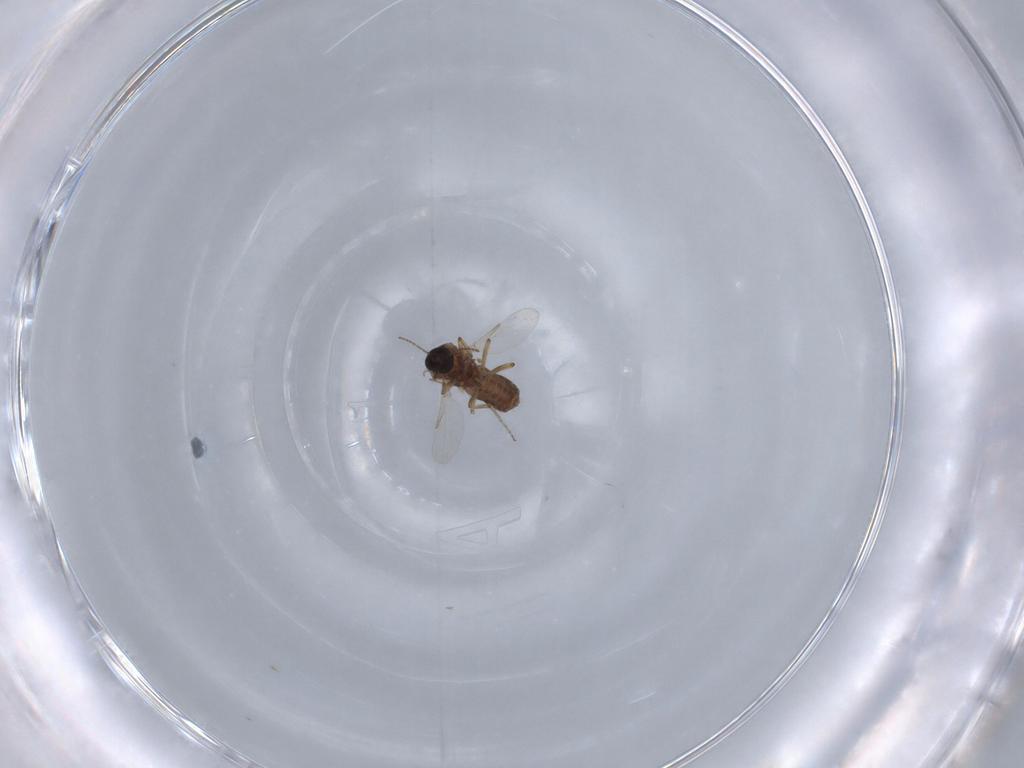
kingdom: Animalia
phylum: Arthropoda
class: Insecta
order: Diptera
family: Ceratopogonidae
